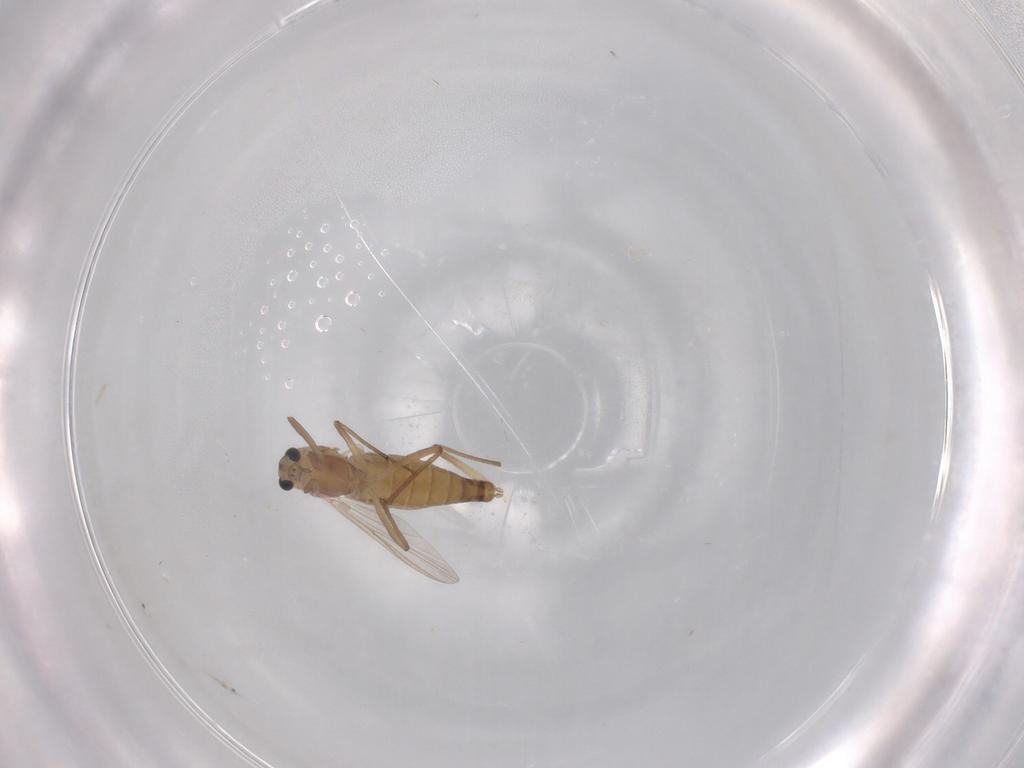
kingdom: Animalia
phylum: Arthropoda
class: Insecta
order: Diptera
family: Chironomidae
